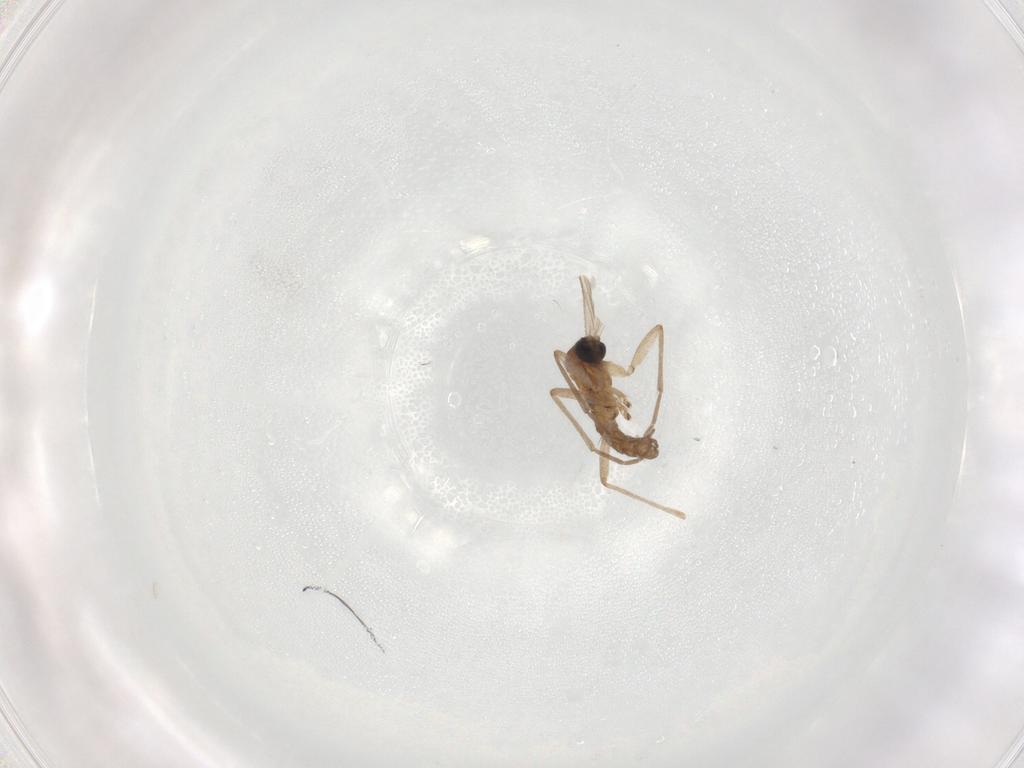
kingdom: Animalia
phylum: Arthropoda
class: Insecta
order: Diptera
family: Sciaridae
